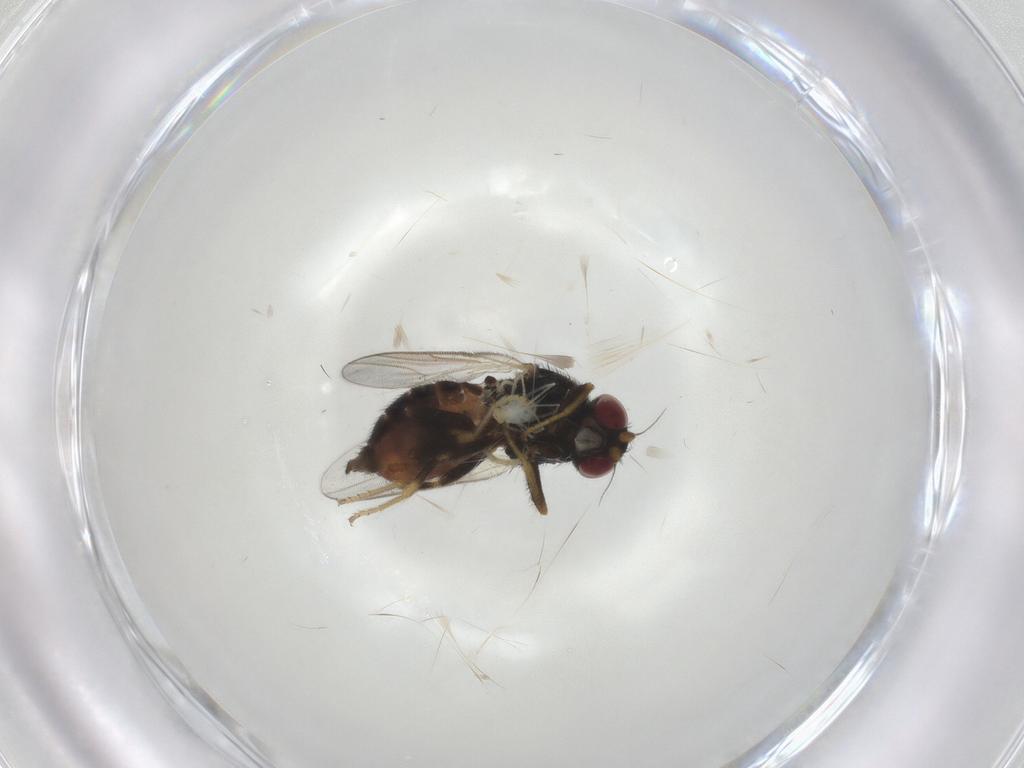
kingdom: Animalia
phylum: Arthropoda
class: Insecta
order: Diptera
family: Chloropidae
